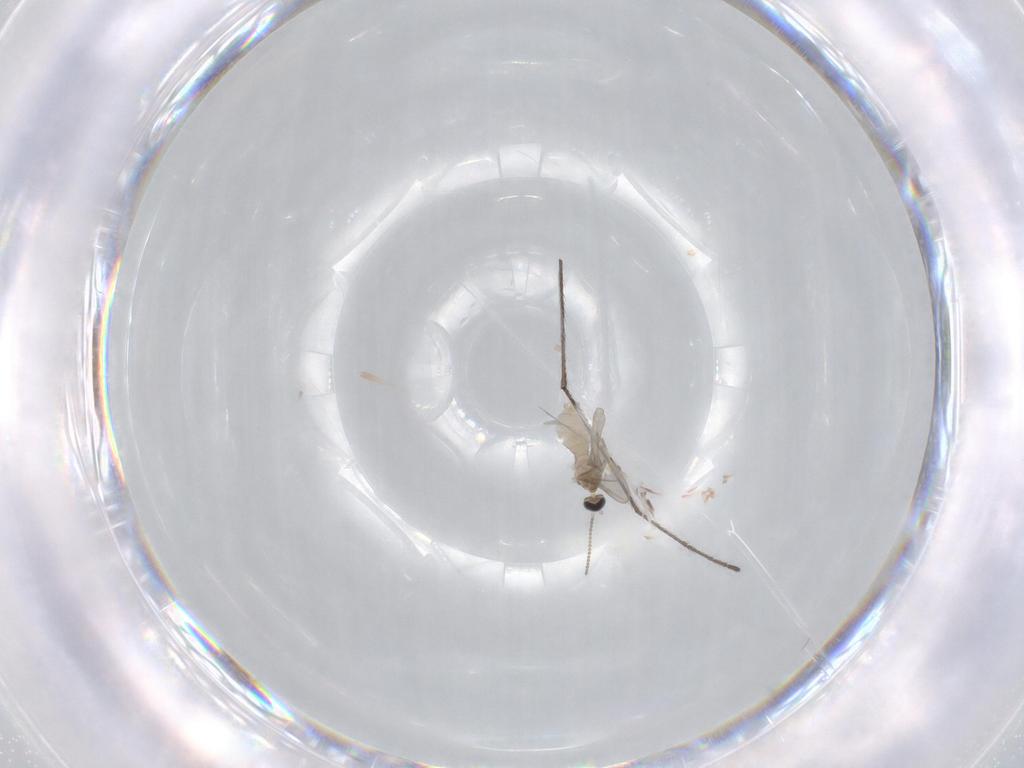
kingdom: Animalia
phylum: Arthropoda
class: Insecta
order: Diptera
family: Cecidomyiidae
